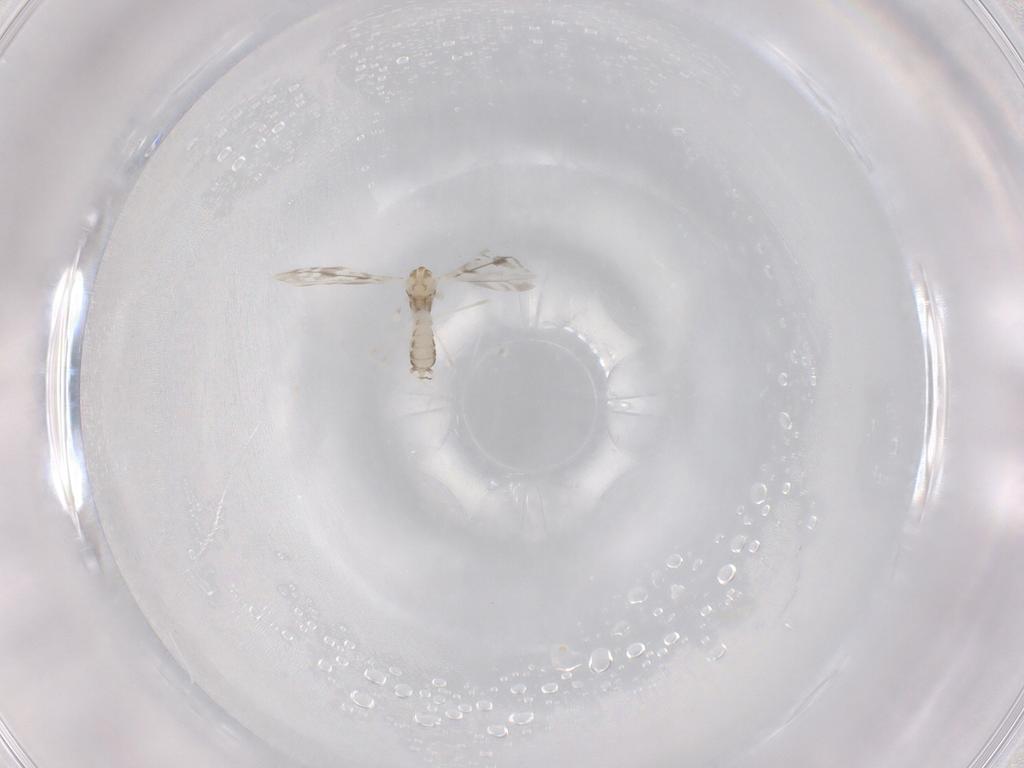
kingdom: Animalia
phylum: Arthropoda
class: Insecta
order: Diptera
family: Cecidomyiidae
